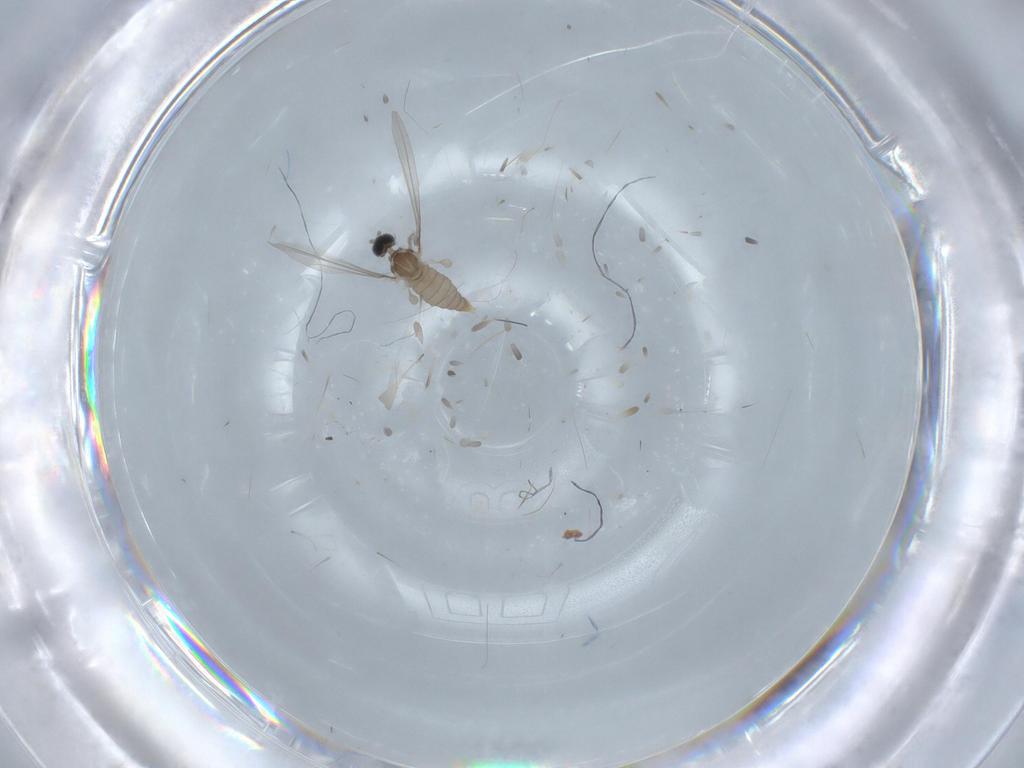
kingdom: Animalia
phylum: Arthropoda
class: Insecta
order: Diptera
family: Cecidomyiidae
